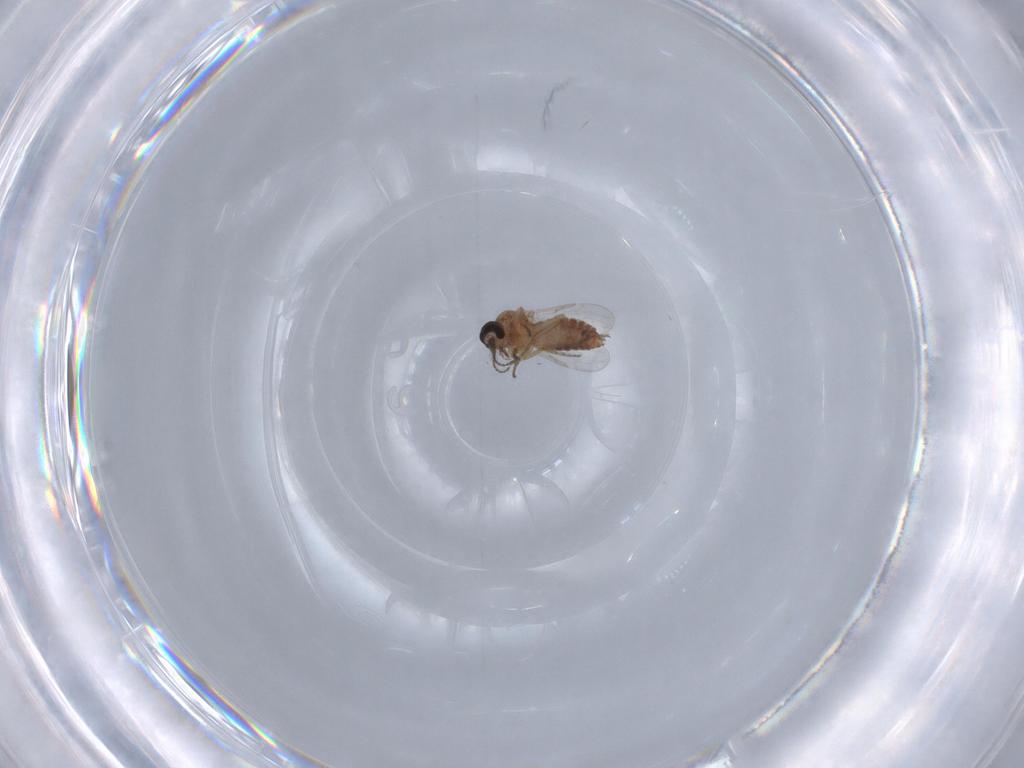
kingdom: Animalia
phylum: Arthropoda
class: Insecta
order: Diptera
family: Ceratopogonidae
